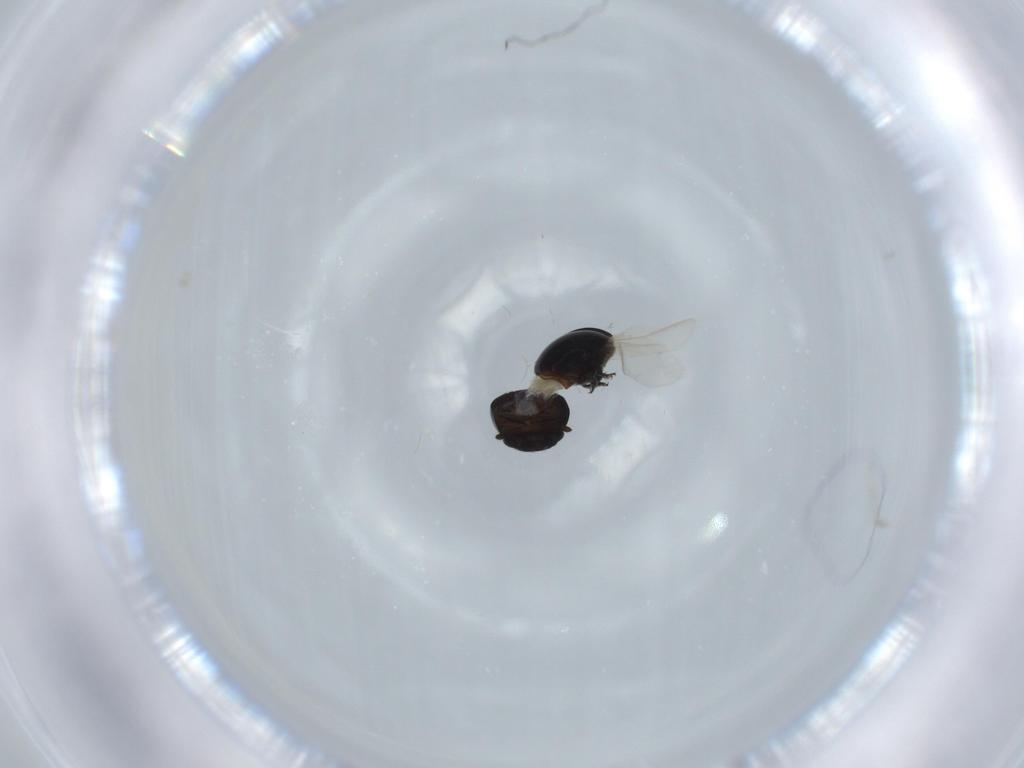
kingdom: Animalia
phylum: Arthropoda
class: Insecta
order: Coleoptera
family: Cybocephalidae
